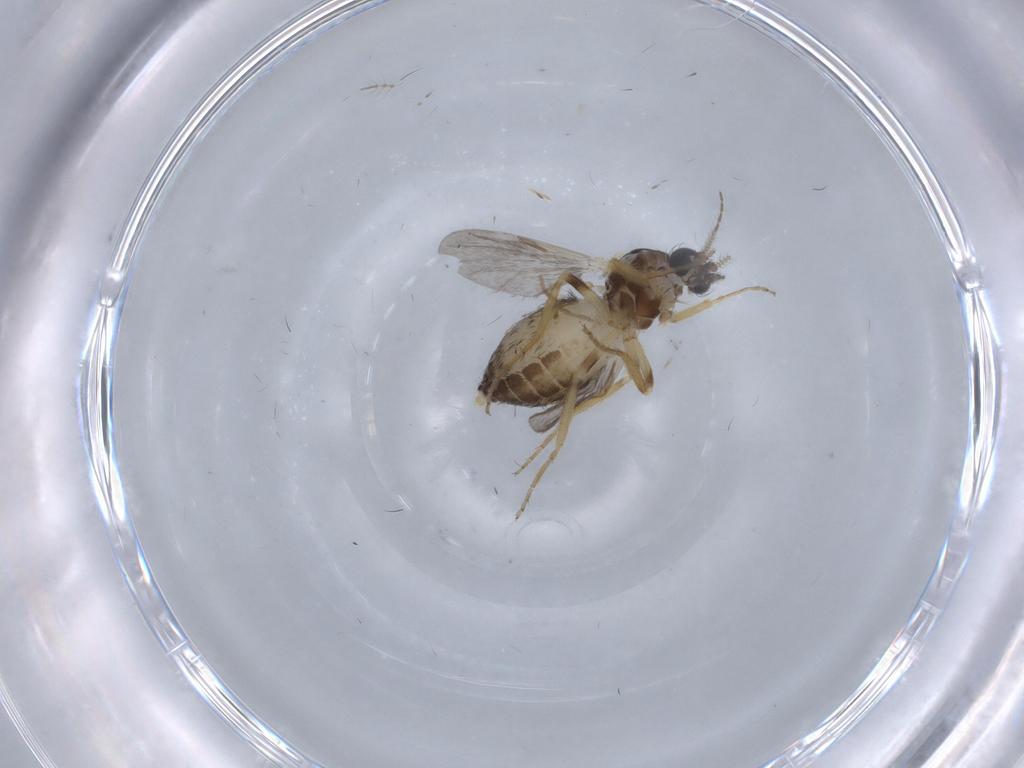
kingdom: Animalia
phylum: Arthropoda
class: Insecta
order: Diptera
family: Ceratopogonidae
